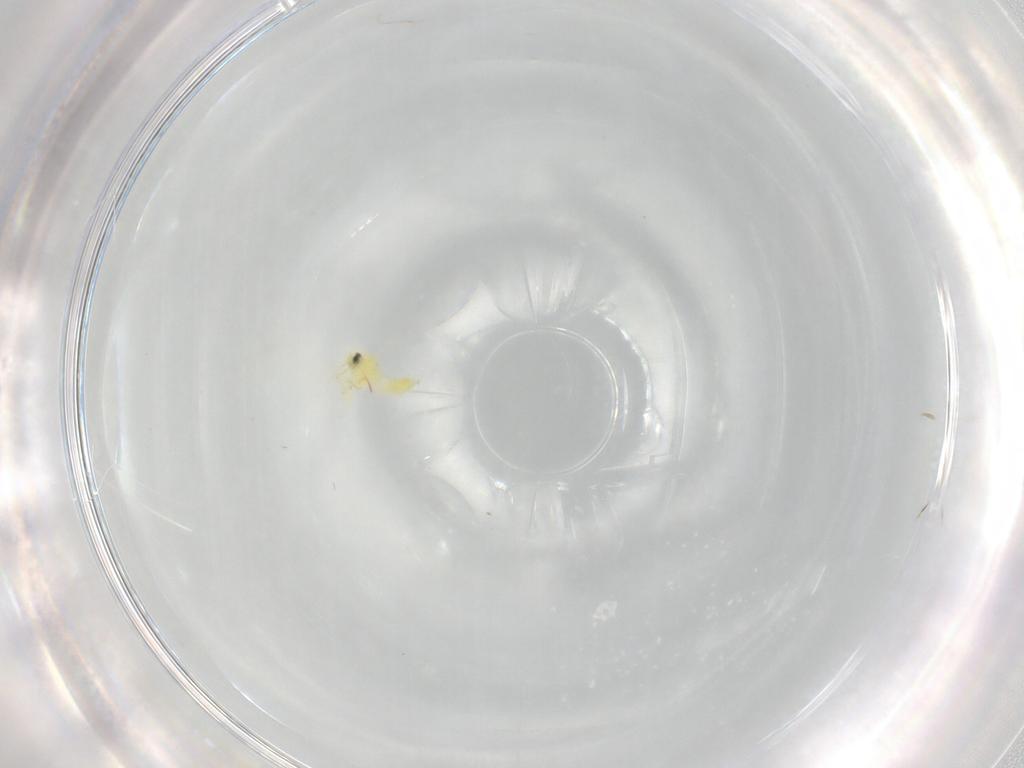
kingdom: Animalia
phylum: Arthropoda
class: Insecta
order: Hemiptera
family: Aleyrodidae
